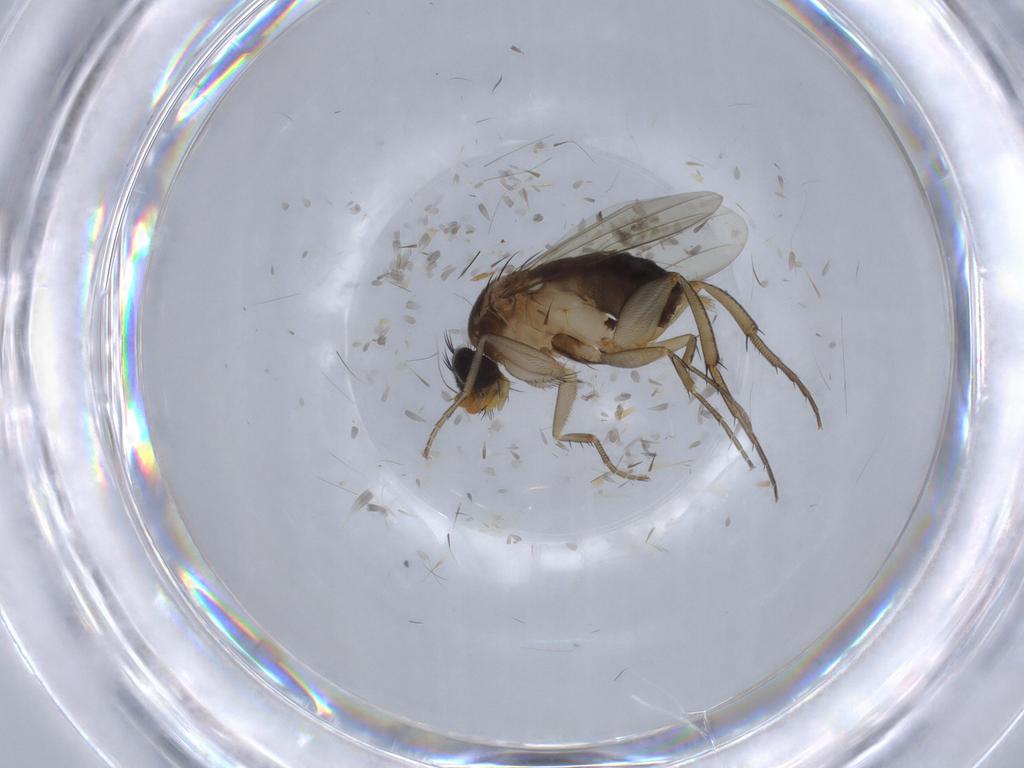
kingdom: Animalia
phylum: Arthropoda
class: Insecta
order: Diptera
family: Phoridae
